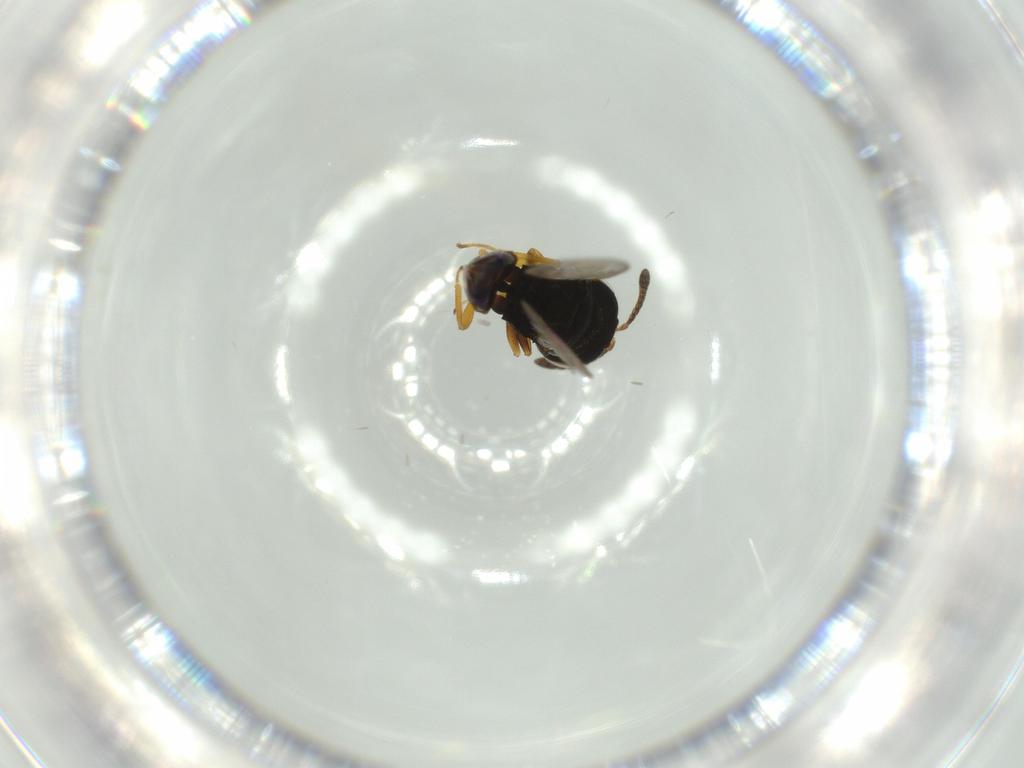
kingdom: Animalia
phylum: Arthropoda
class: Insecta
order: Hymenoptera
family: Pteromalidae
